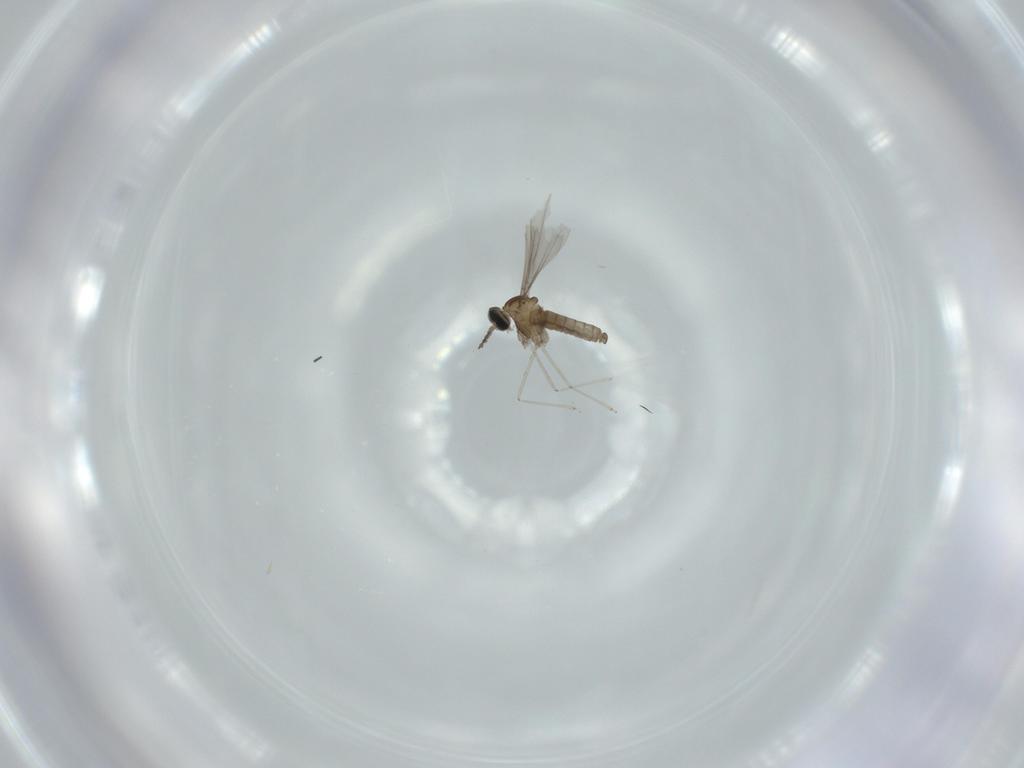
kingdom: Animalia
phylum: Arthropoda
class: Insecta
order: Diptera
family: Cecidomyiidae
